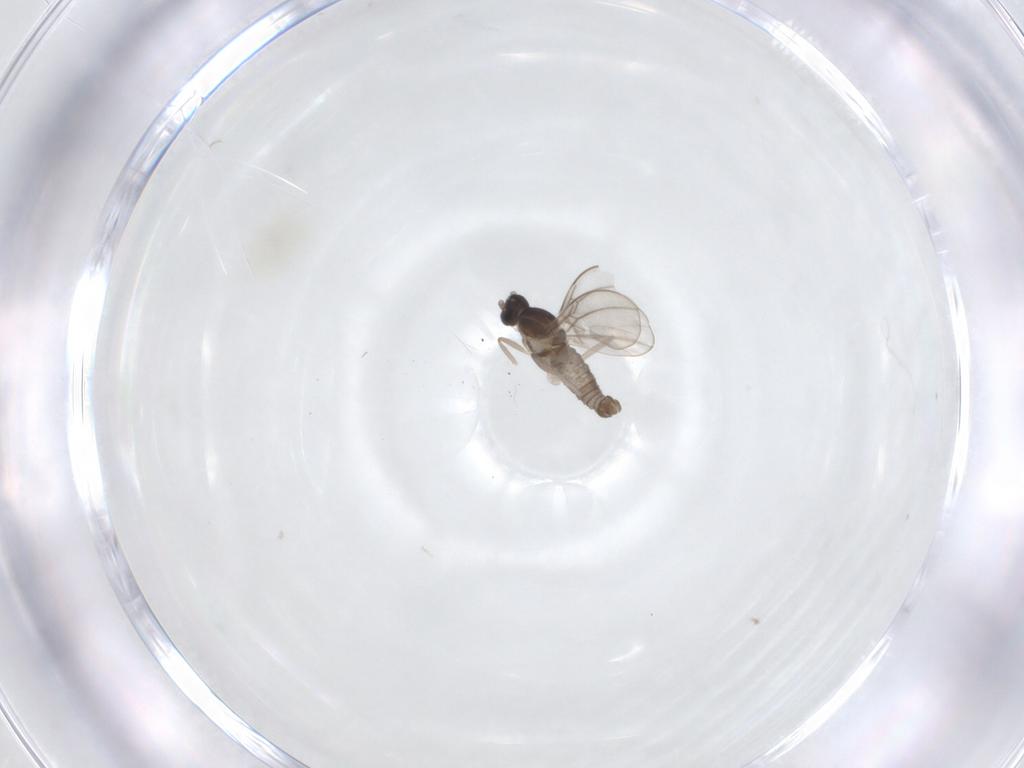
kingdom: Animalia
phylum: Arthropoda
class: Insecta
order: Diptera
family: Cecidomyiidae
